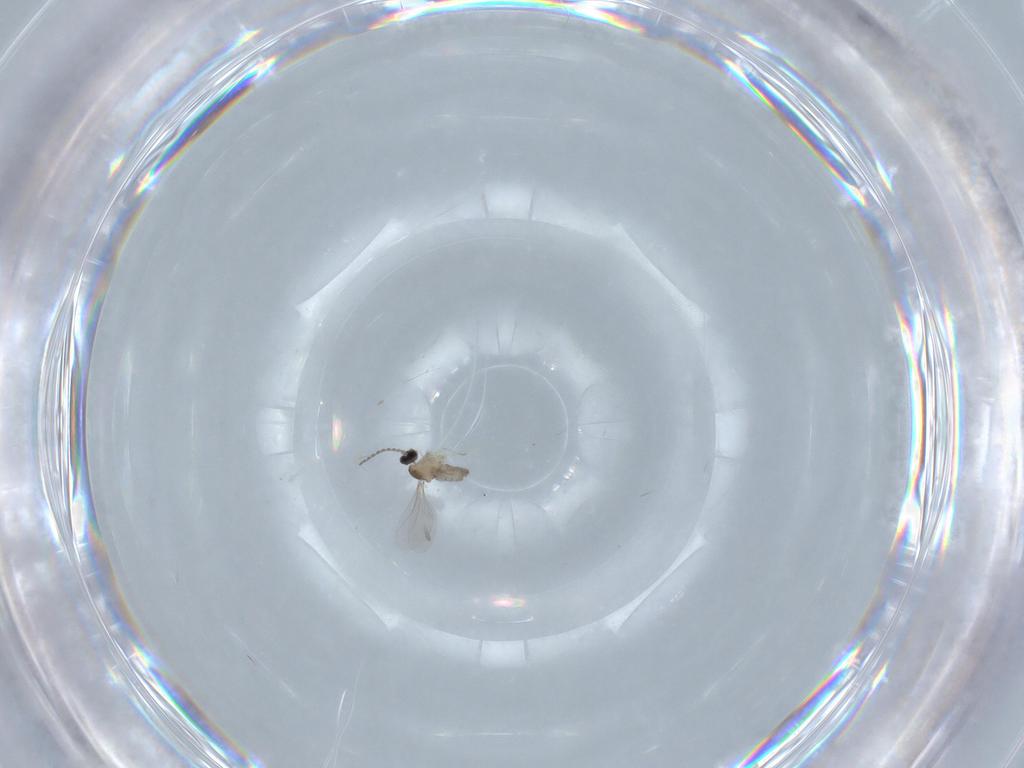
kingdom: Animalia
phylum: Arthropoda
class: Insecta
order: Diptera
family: Cecidomyiidae
